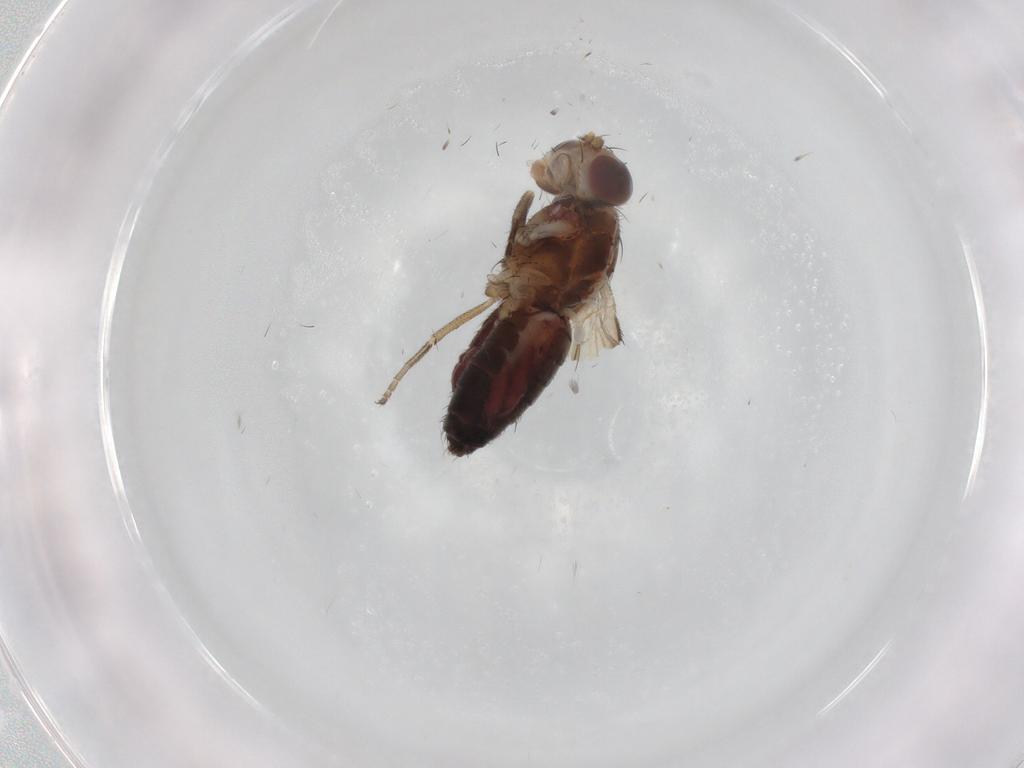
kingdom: Animalia
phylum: Arthropoda
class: Insecta
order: Diptera
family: Heleomyzidae
